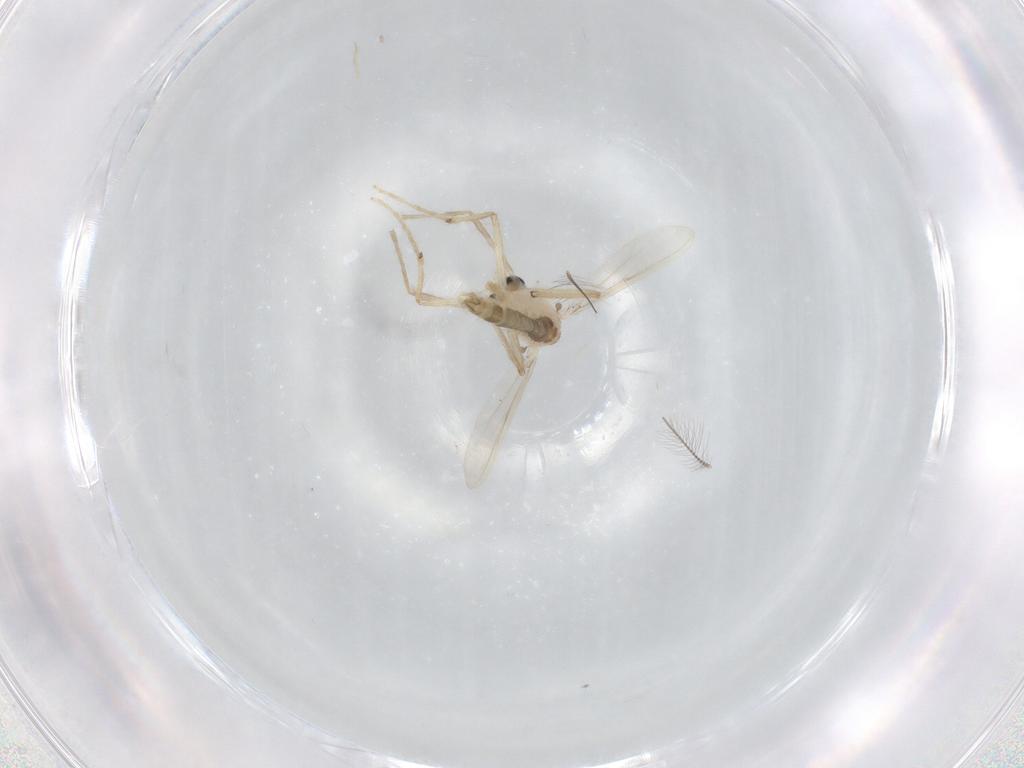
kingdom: Animalia
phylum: Arthropoda
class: Insecta
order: Diptera
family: Chironomidae
